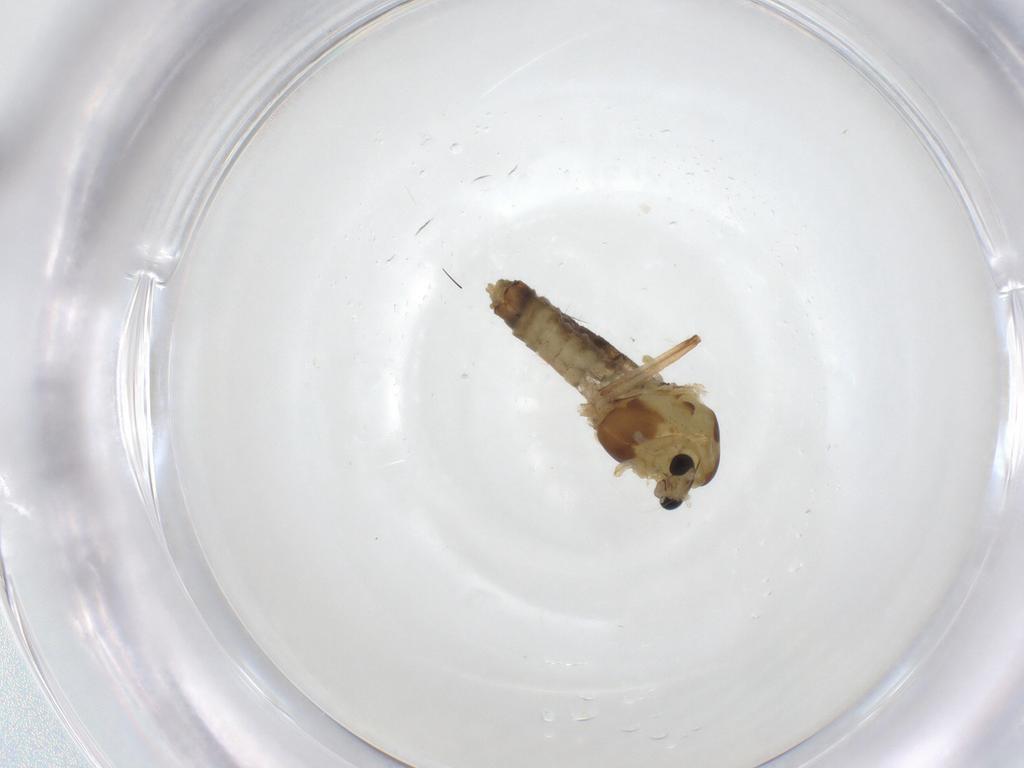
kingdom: Animalia
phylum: Arthropoda
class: Insecta
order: Diptera
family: Chironomidae
